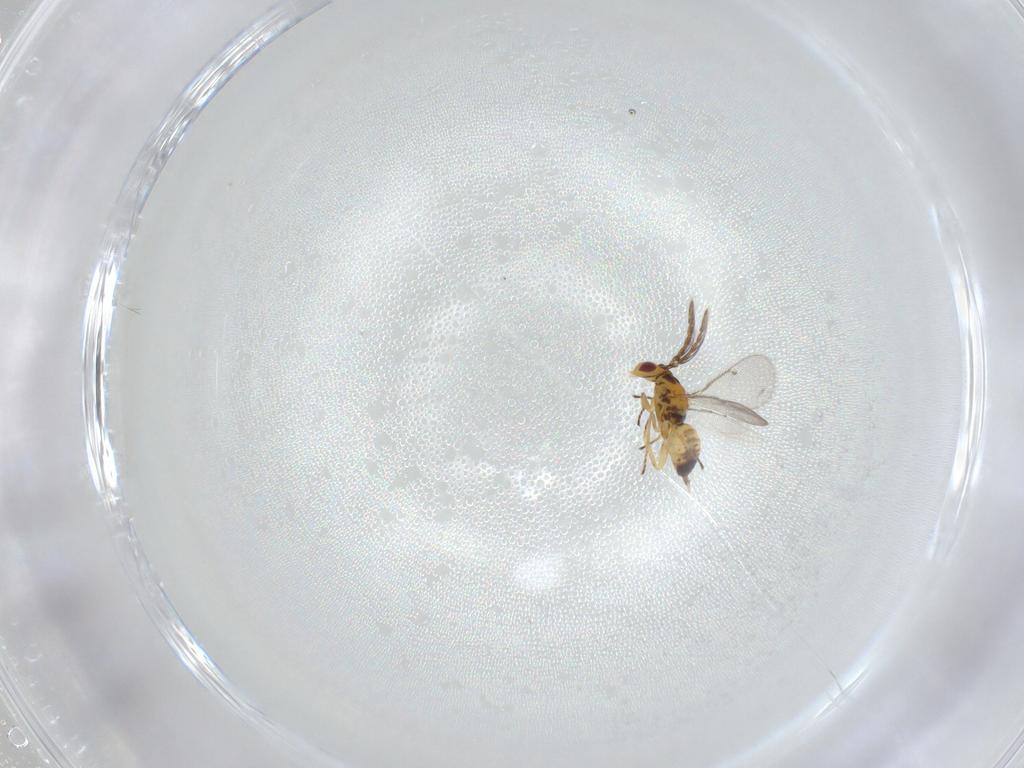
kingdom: Animalia
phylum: Arthropoda
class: Insecta
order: Hymenoptera
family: Eulophidae
